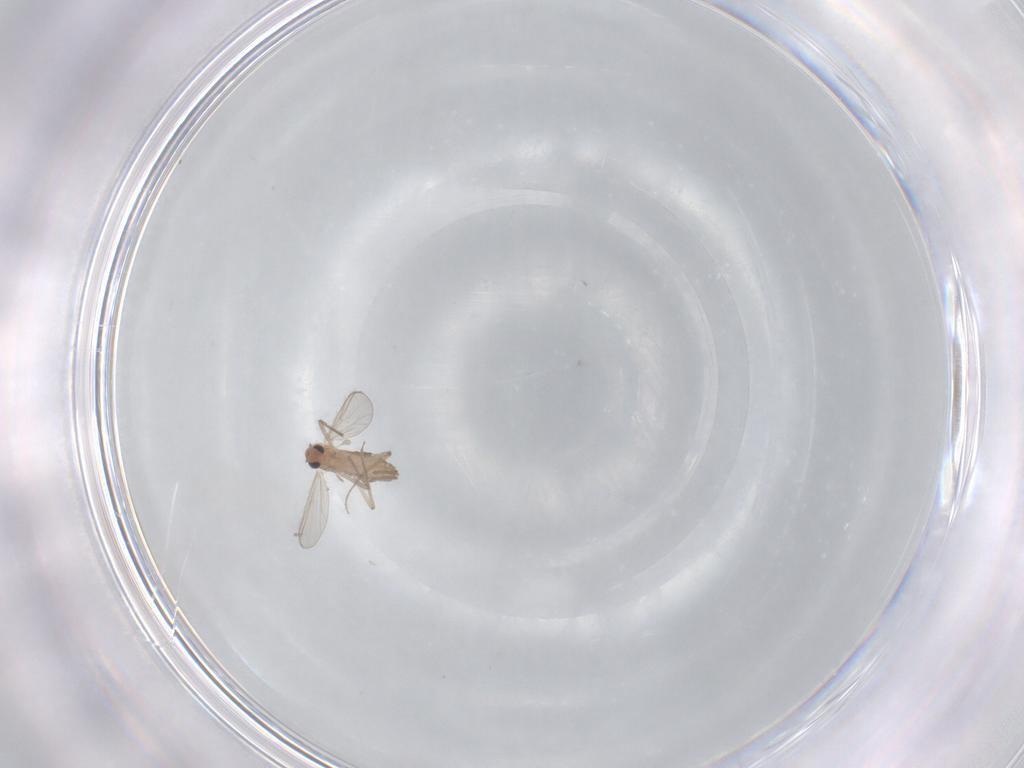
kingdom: Animalia
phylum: Arthropoda
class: Insecta
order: Diptera
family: Chironomidae
